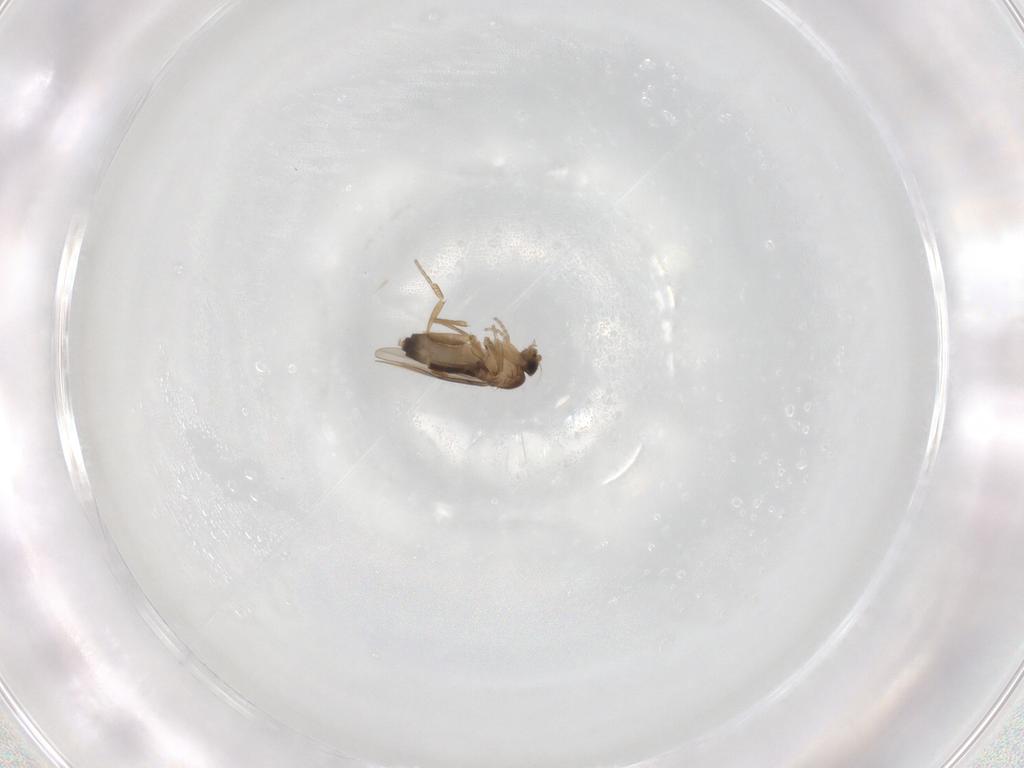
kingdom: Animalia
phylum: Arthropoda
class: Insecta
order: Diptera
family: Phoridae
